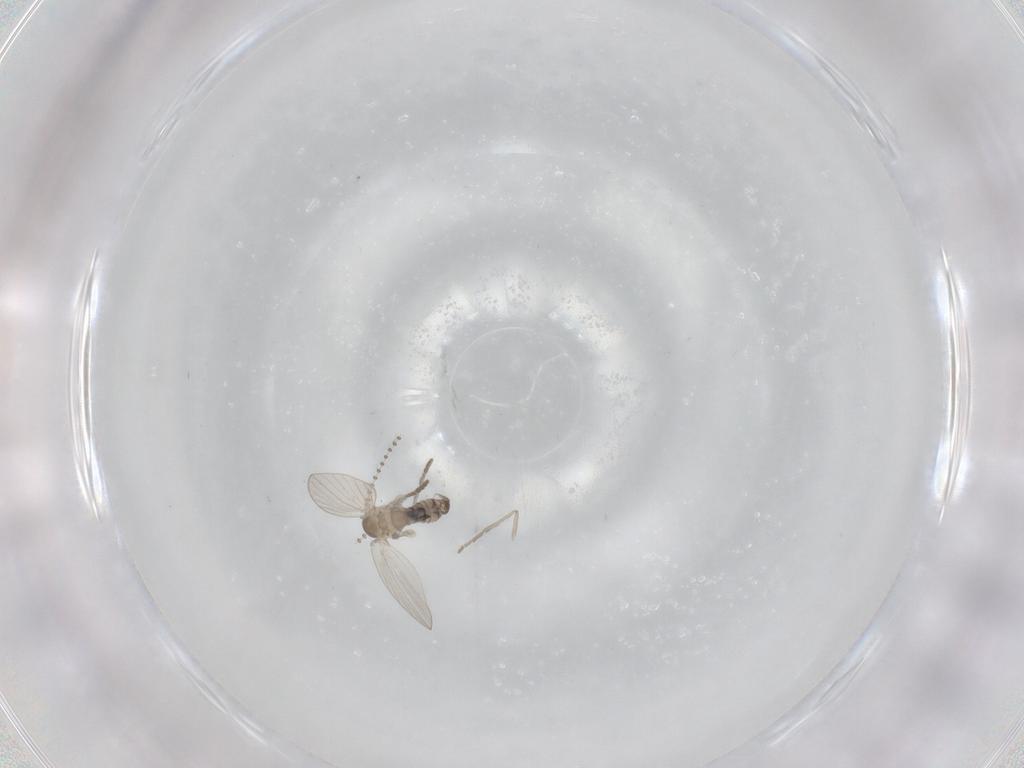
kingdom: Animalia
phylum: Arthropoda
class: Insecta
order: Diptera
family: Psychodidae
